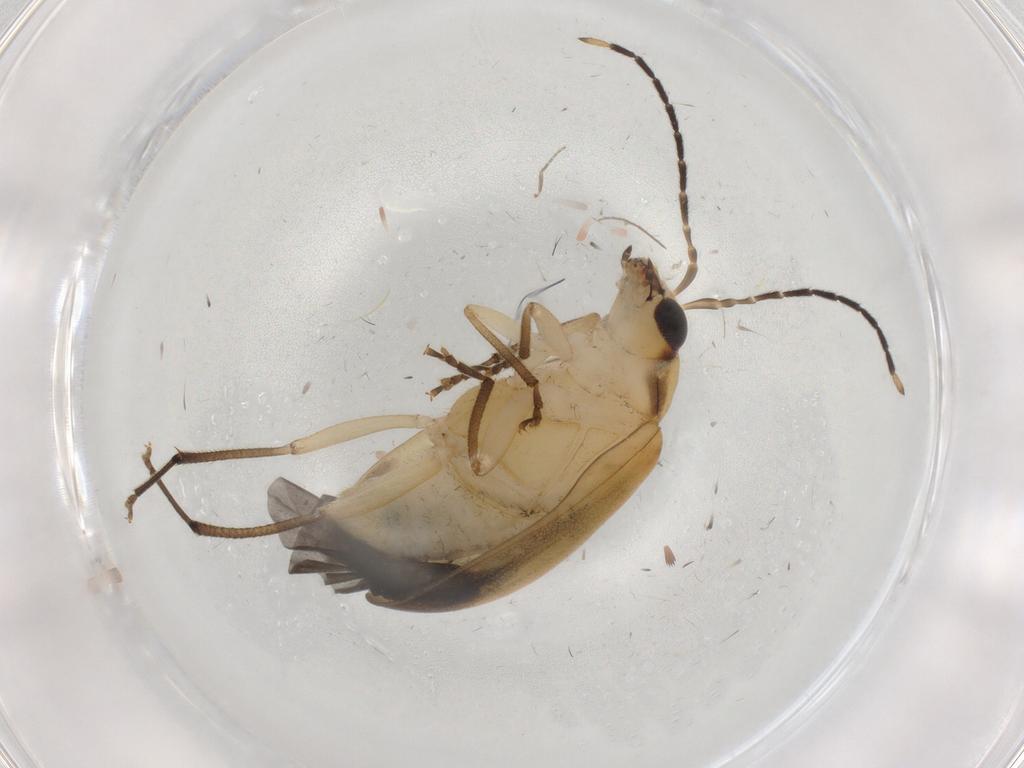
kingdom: Animalia
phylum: Arthropoda
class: Insecta
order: Coleoptera
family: Chrysomelidae
